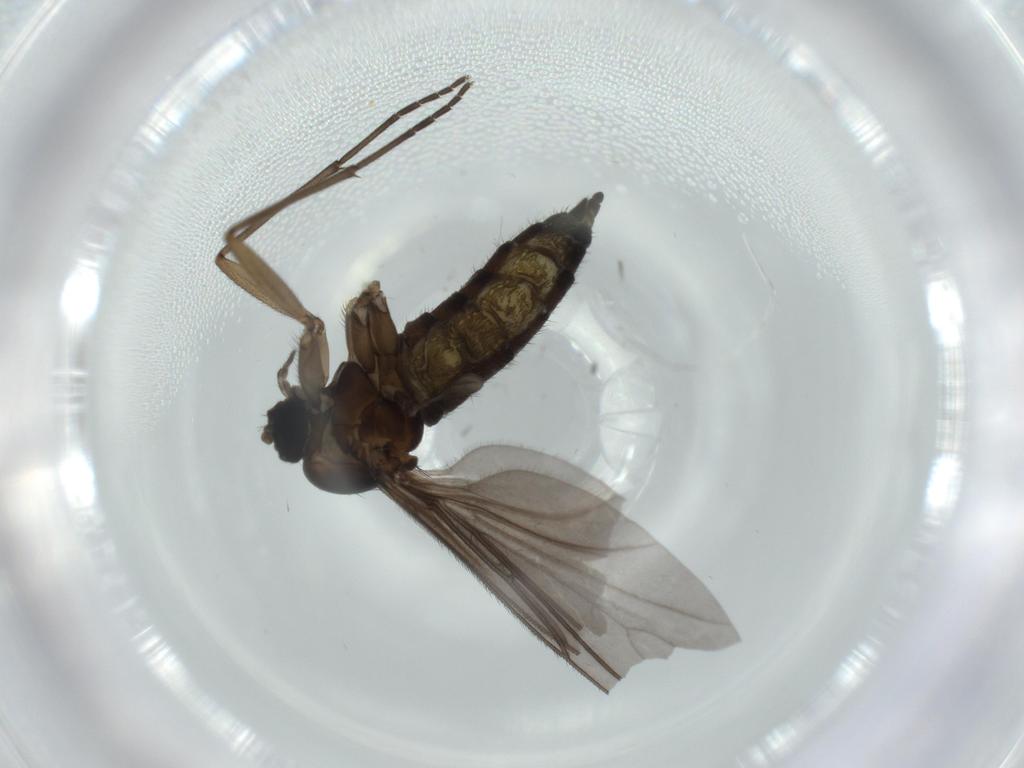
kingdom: Animalia
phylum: Arthropoda
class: Insecta
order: Diptera
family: Sciaridae
